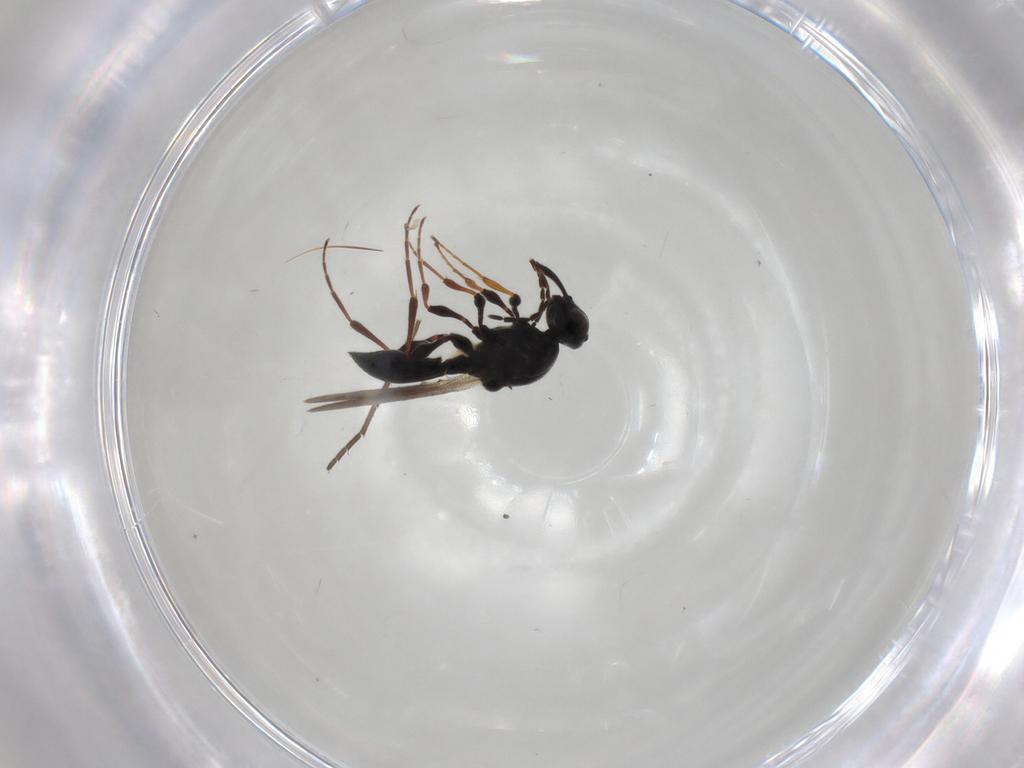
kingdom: Animalia
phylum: Arthropoda
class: Insecta
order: Hymenoptera
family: Platygastridae
